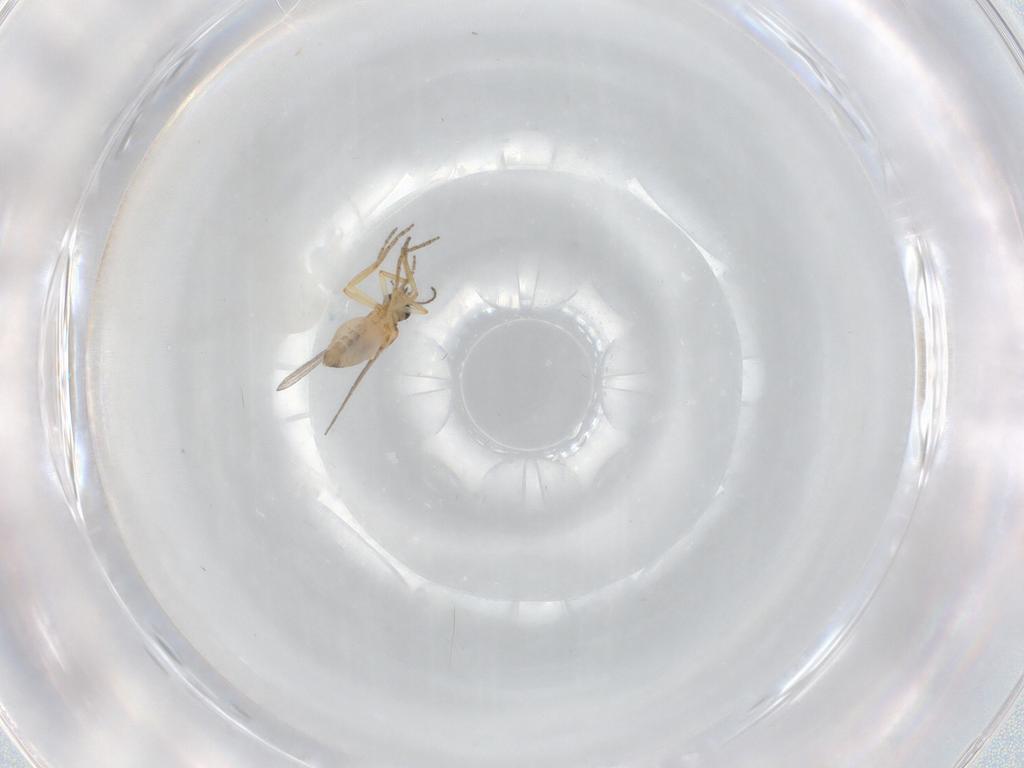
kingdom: Animalia
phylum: Arthropoda
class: Insecta
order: Diptera
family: Ceratopogonidae
